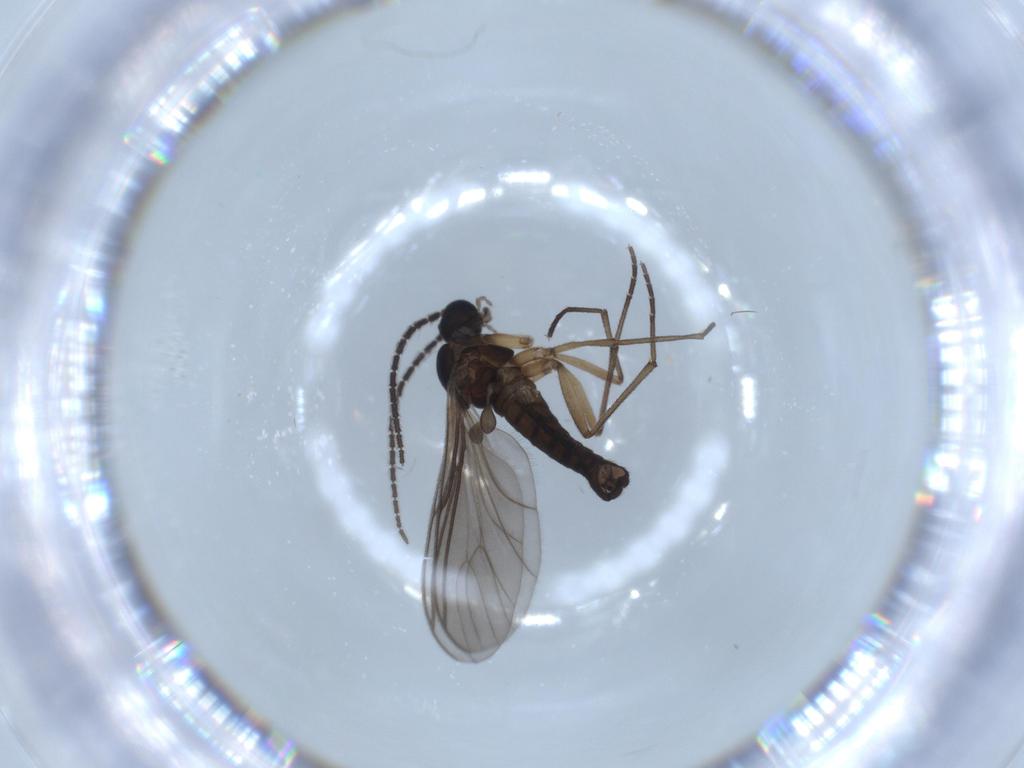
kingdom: Animalia
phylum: Arthropoda
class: Insecta
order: Diptera
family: Sciaridae
